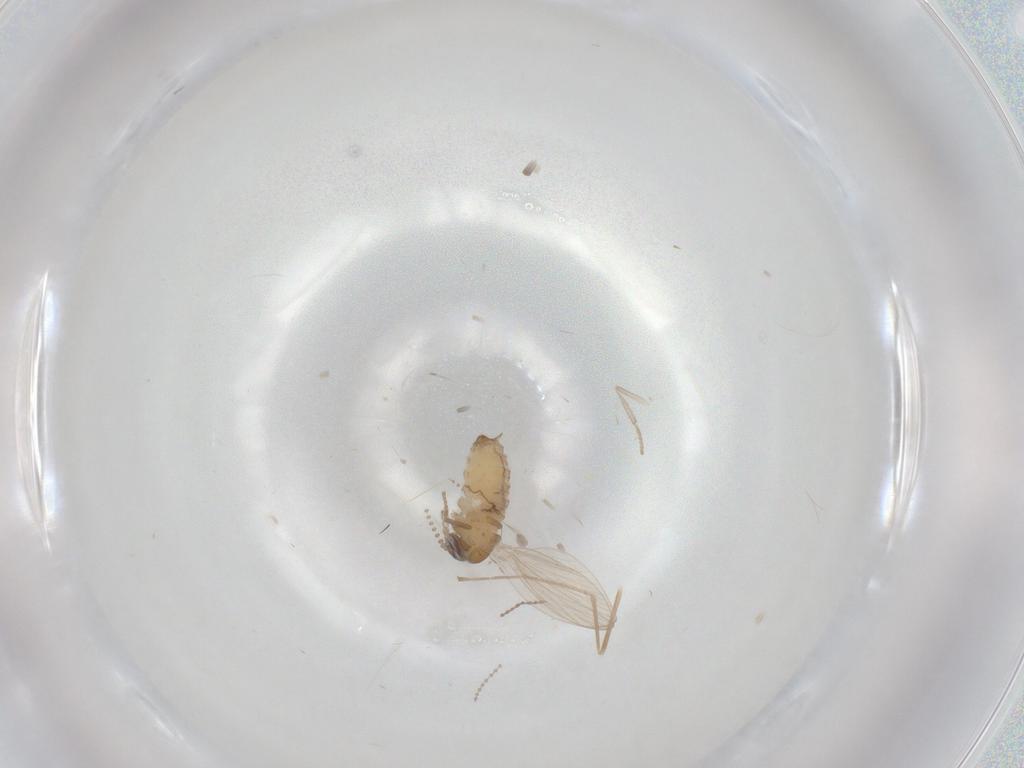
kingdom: Animalia
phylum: Arthropoda
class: Insecta
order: Diptera
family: Psychodidae
